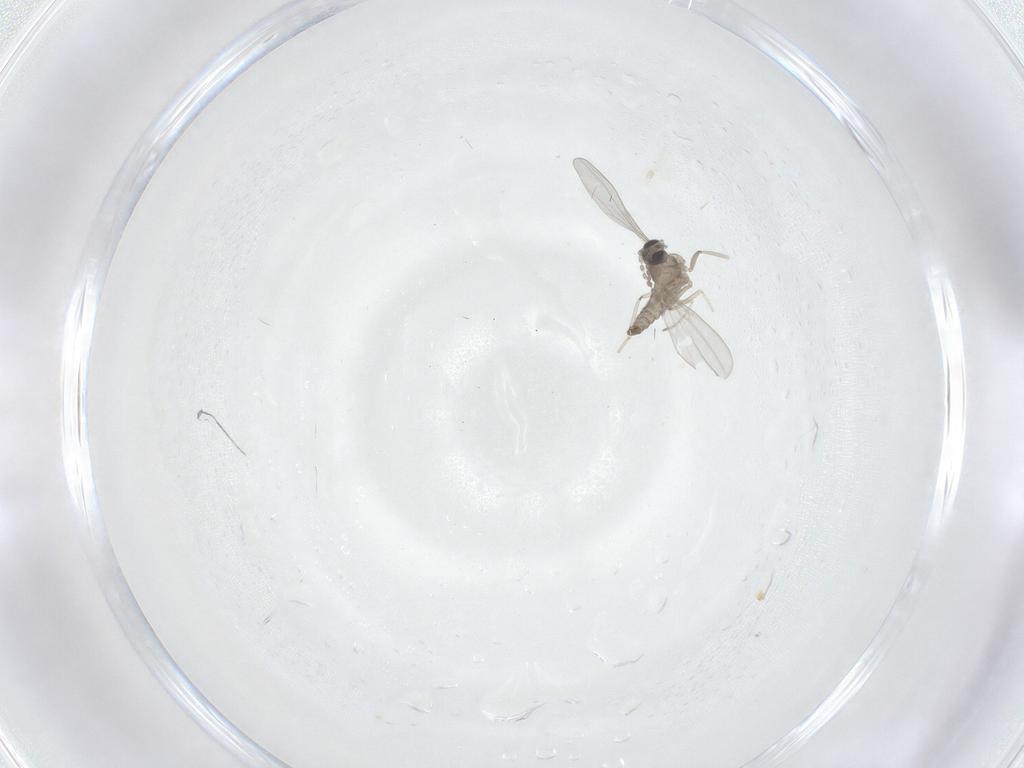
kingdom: Animalia
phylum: Arthropoda
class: Insecta
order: Diptera
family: Cecidomyiidae
